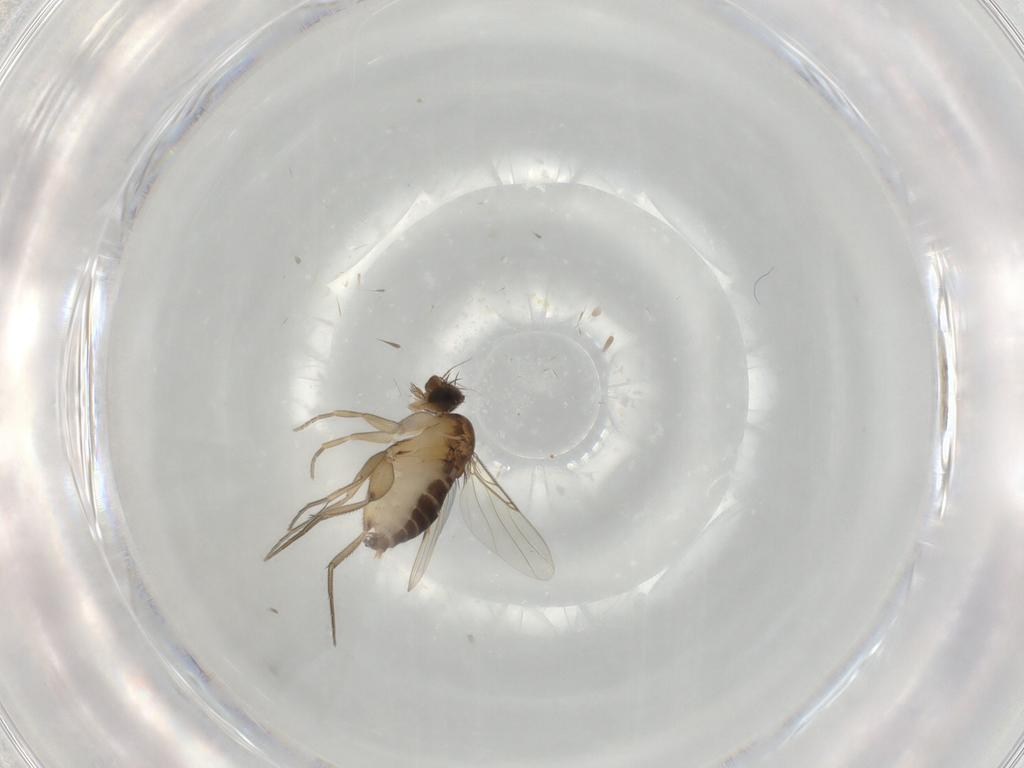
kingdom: Animalia
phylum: Arthropoda
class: Insecta
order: Diptera
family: Phoridae
